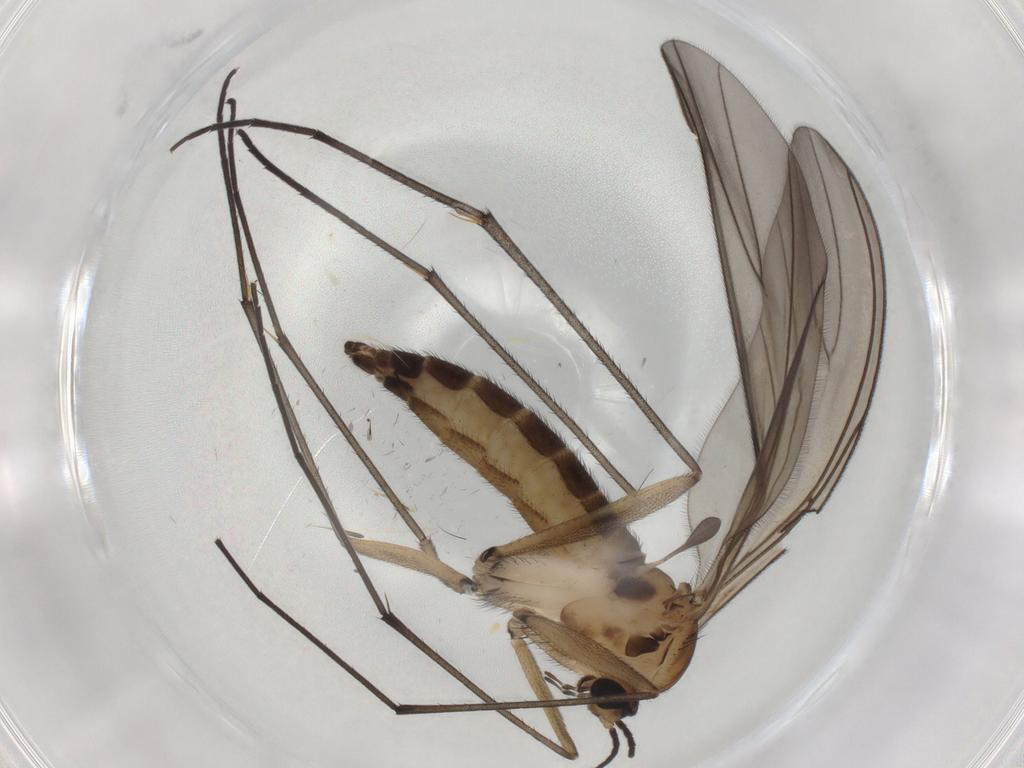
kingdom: Animalia
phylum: Arthropoda
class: Insecta
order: Diptera
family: Sciaridae
